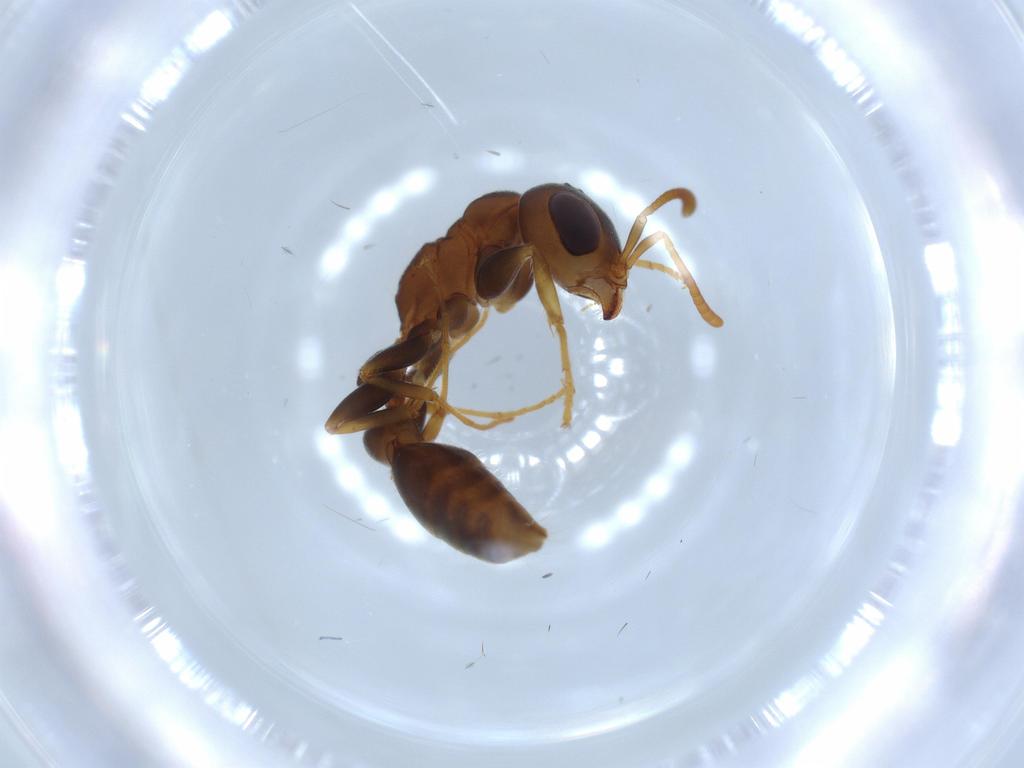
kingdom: Animalia
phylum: Arthropoda
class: Insecta
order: Hymenoptera
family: Formicidae
